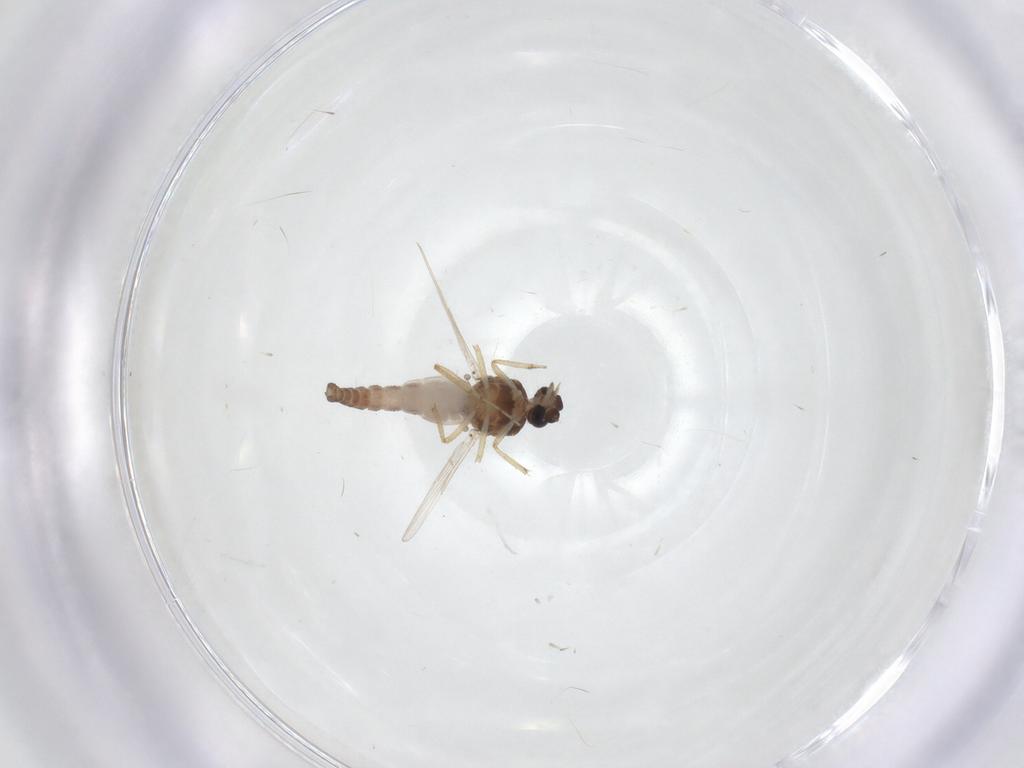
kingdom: Animalia
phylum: Arthropoda
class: Insecta
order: Diptera
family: Ceratopogonidae
